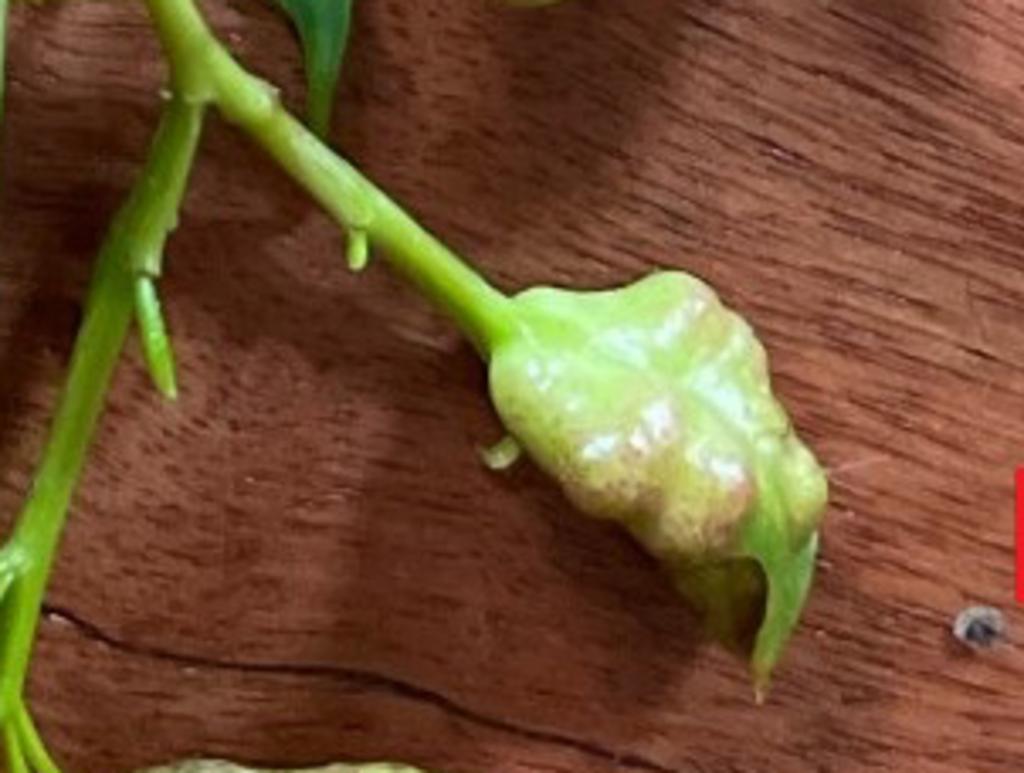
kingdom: Animalia
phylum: Arthropoda
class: Insecta
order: Diptera
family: Fergusoninidae
